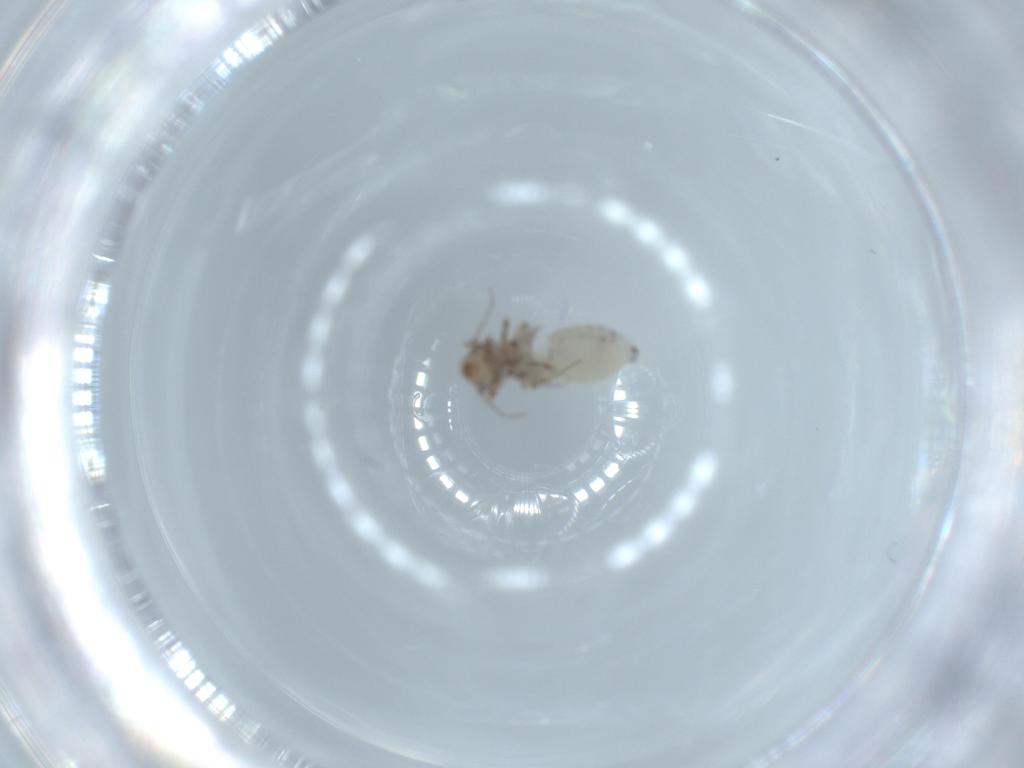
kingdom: Animalia
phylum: Arthropoda
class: Insecta
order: Psocodea
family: Lepidopsocidae
